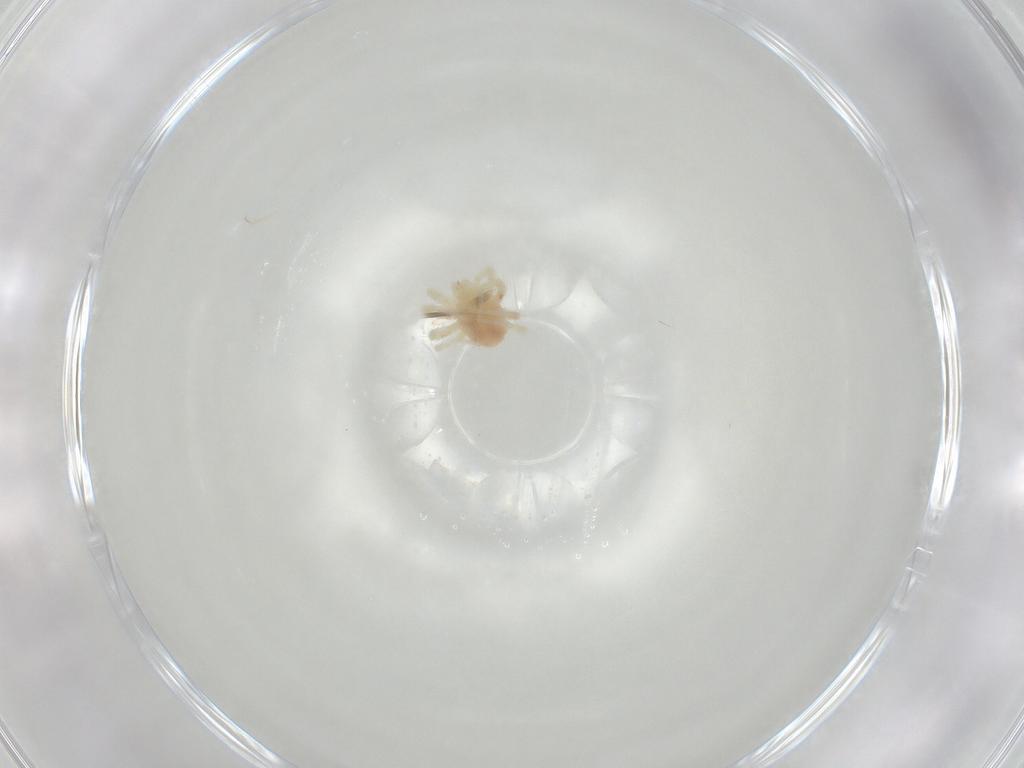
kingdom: Animalia
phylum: Arthropoda
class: Arachnida
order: Trombidiformes
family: Anystidae
